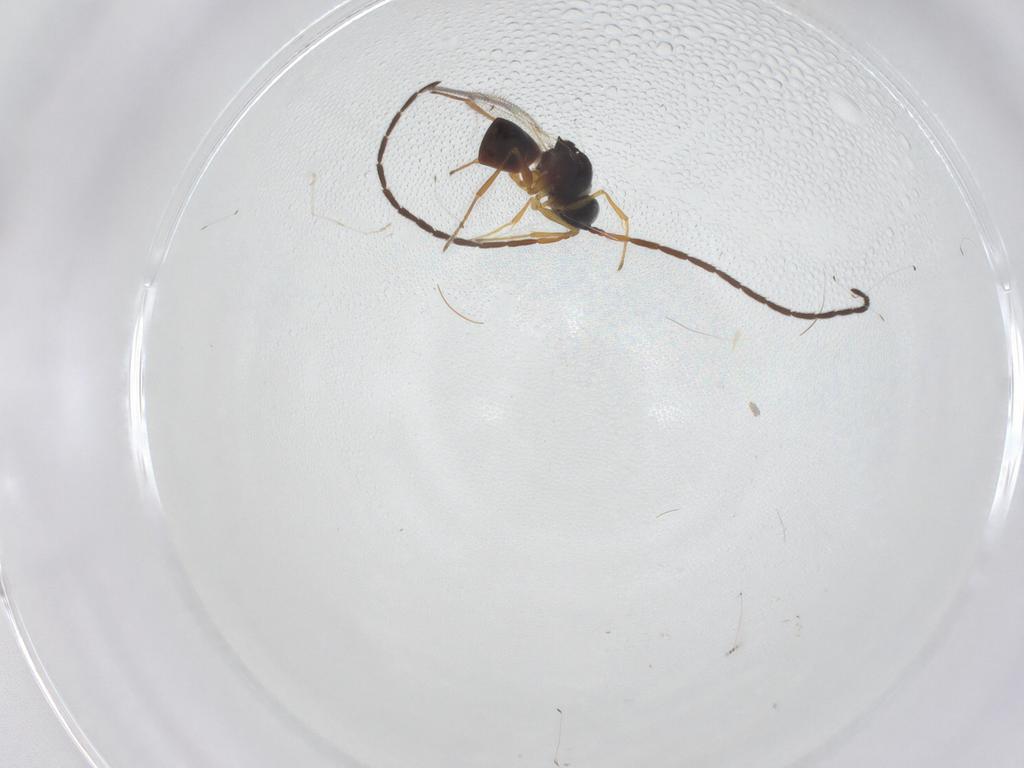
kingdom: Animalia
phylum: Arthropoda
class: Insecta
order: Hymenoptera
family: Figitidae
